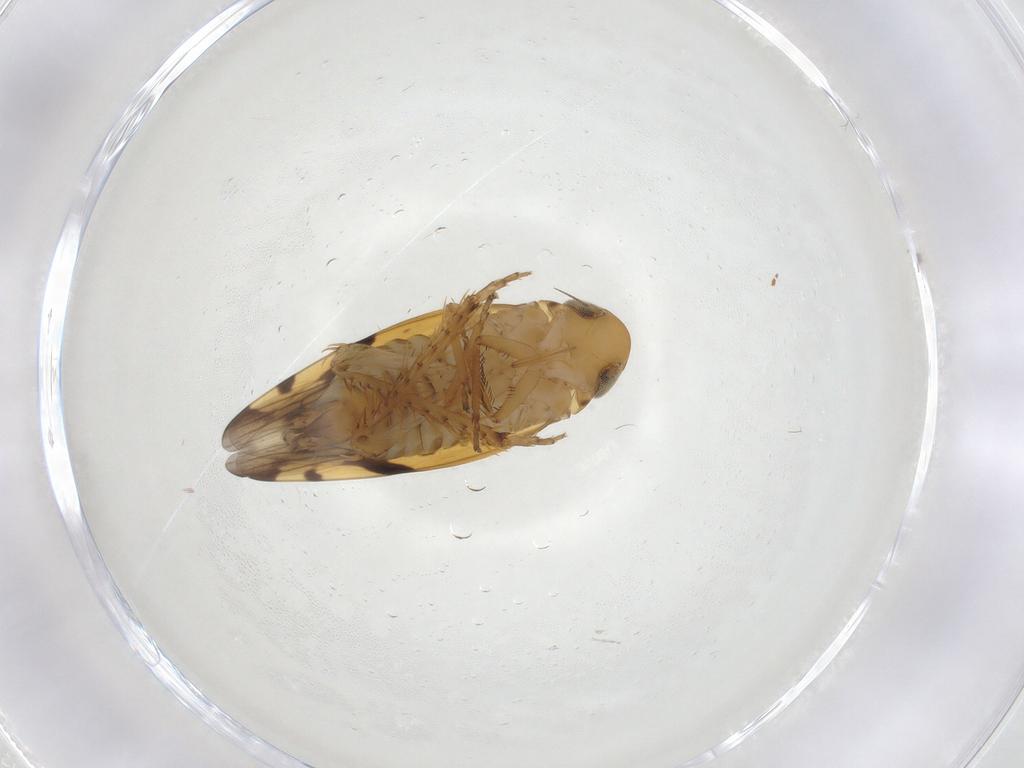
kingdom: Animalia
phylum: Arthropoda
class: Insecta
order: Hemiptera
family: Cicadellidae
